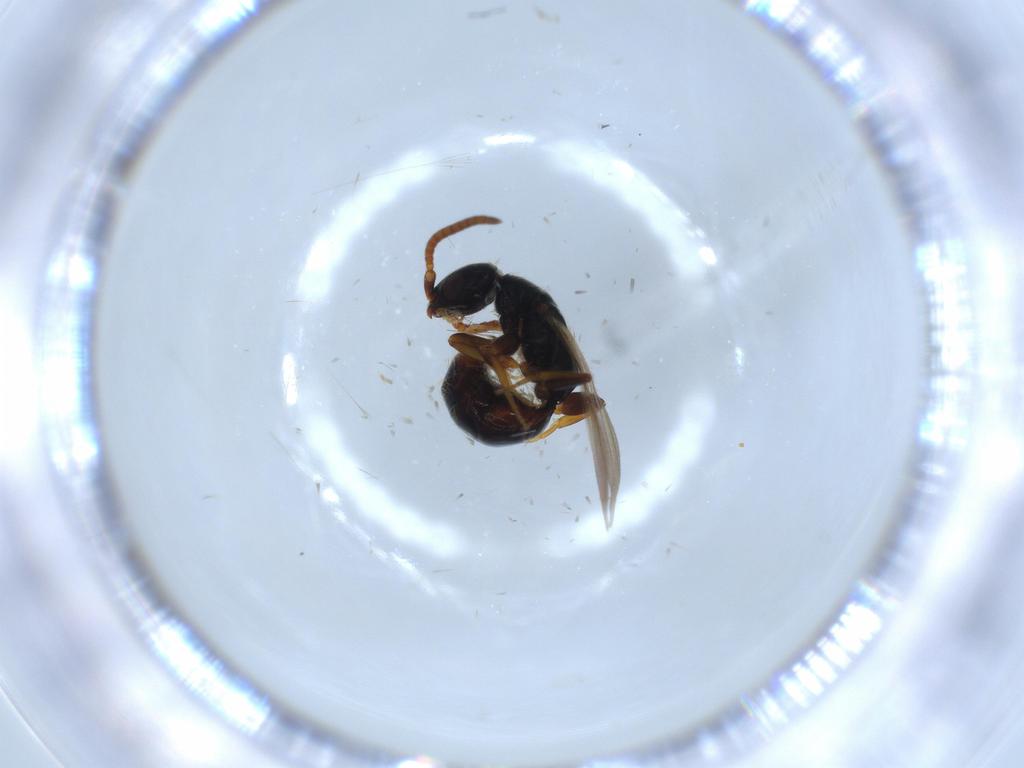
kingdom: Animalia
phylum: Arthropoda
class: Insecta
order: Hymenoptera
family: Bethylidae
